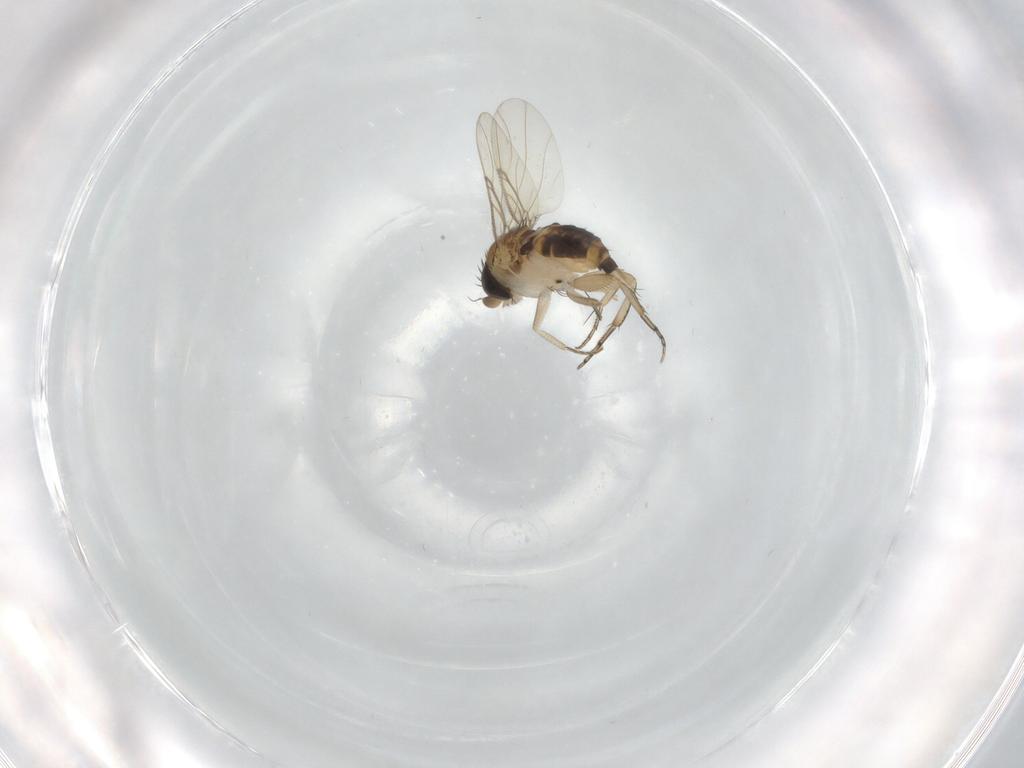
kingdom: Animalia
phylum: Arthropoda
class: Insecta
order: Diptera
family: Phoridae
